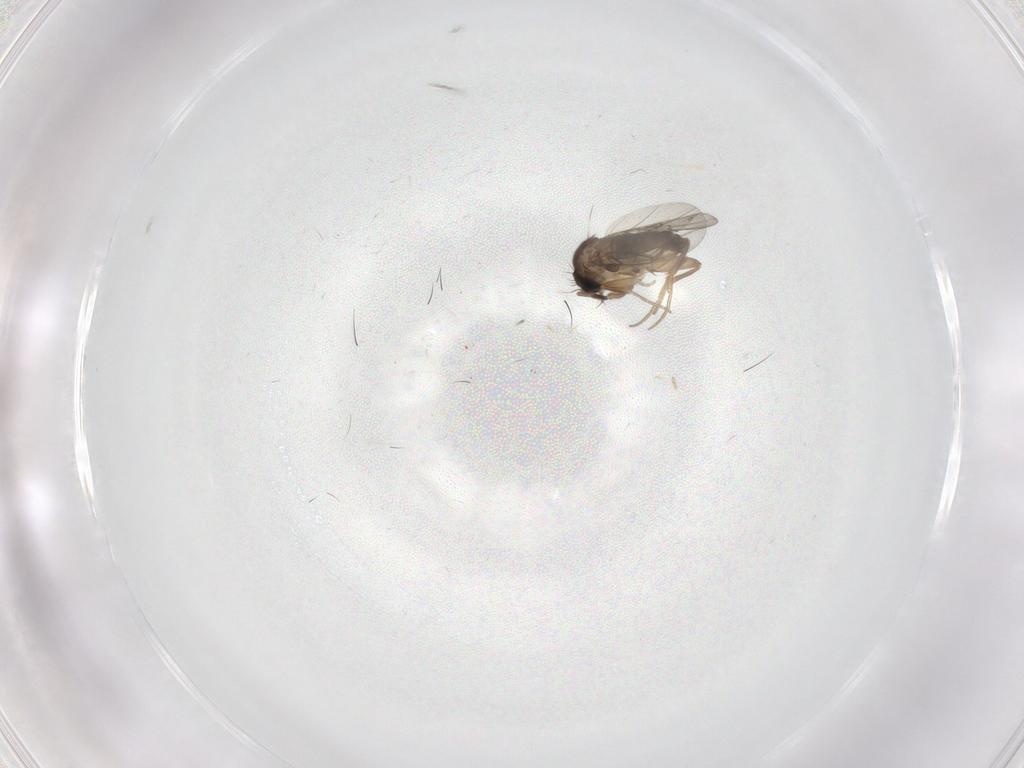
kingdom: Animalia
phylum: Arthropoda
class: Insecta
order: Diptera
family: Phoridae
